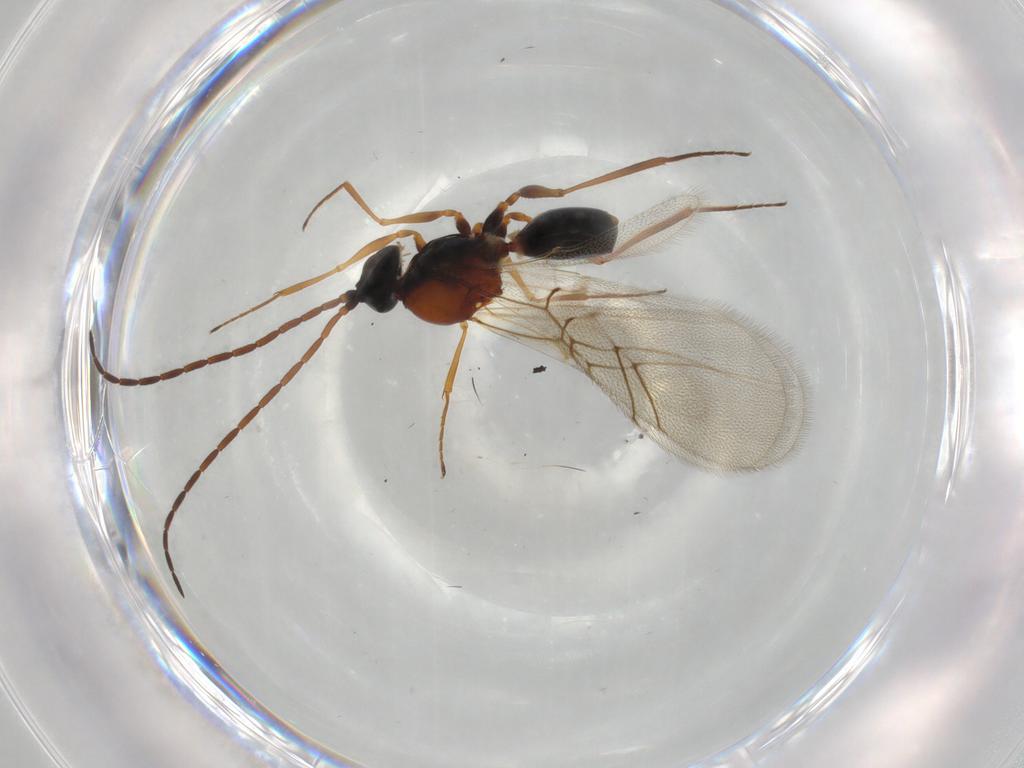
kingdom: Animalia
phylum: Arthropoda
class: Insecta
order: Hymenoptera
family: Figitidae
